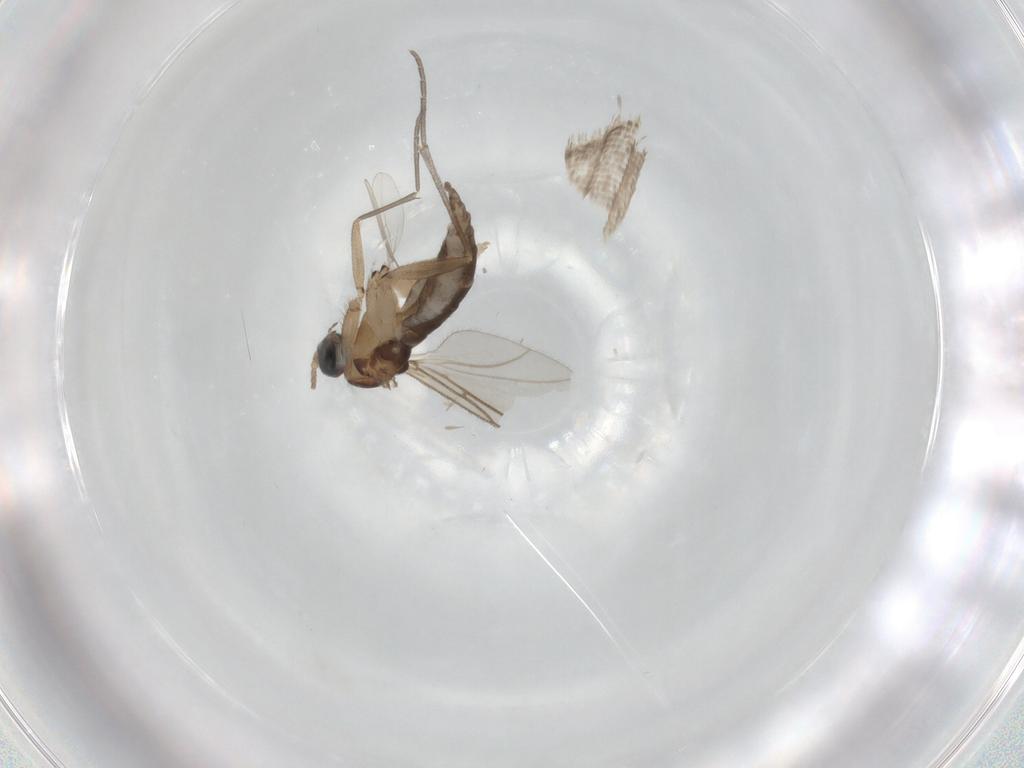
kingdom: Animalia
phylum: Arthropoda
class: Insecta
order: Diptera
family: Cecidomyiidae
